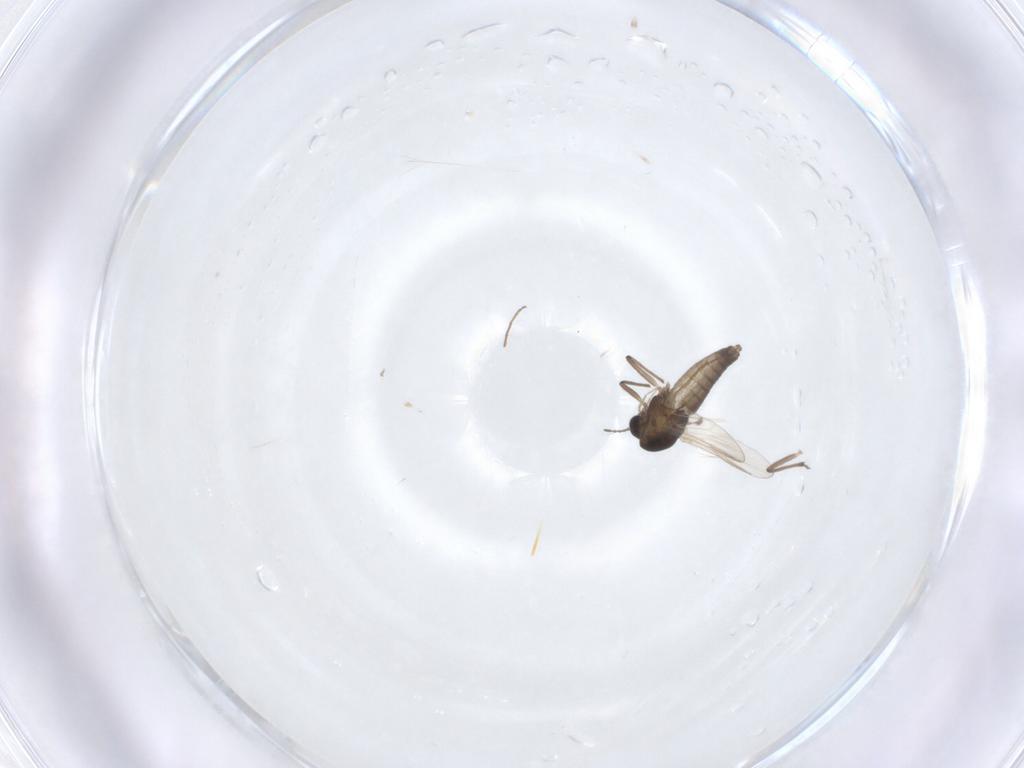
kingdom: Animalia
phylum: Arthropoda
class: Insecta
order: Diptera
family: Chironomidae
